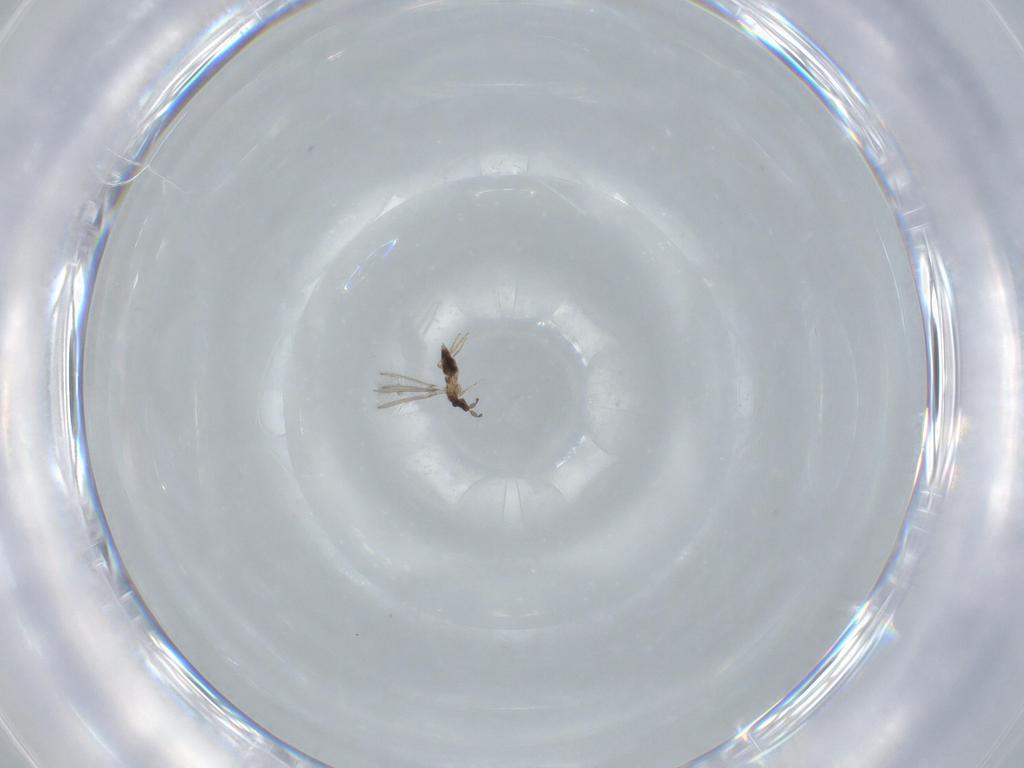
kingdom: Animalia
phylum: Arthropoda
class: Insecta
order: Hymenoptera
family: Mymaridae
